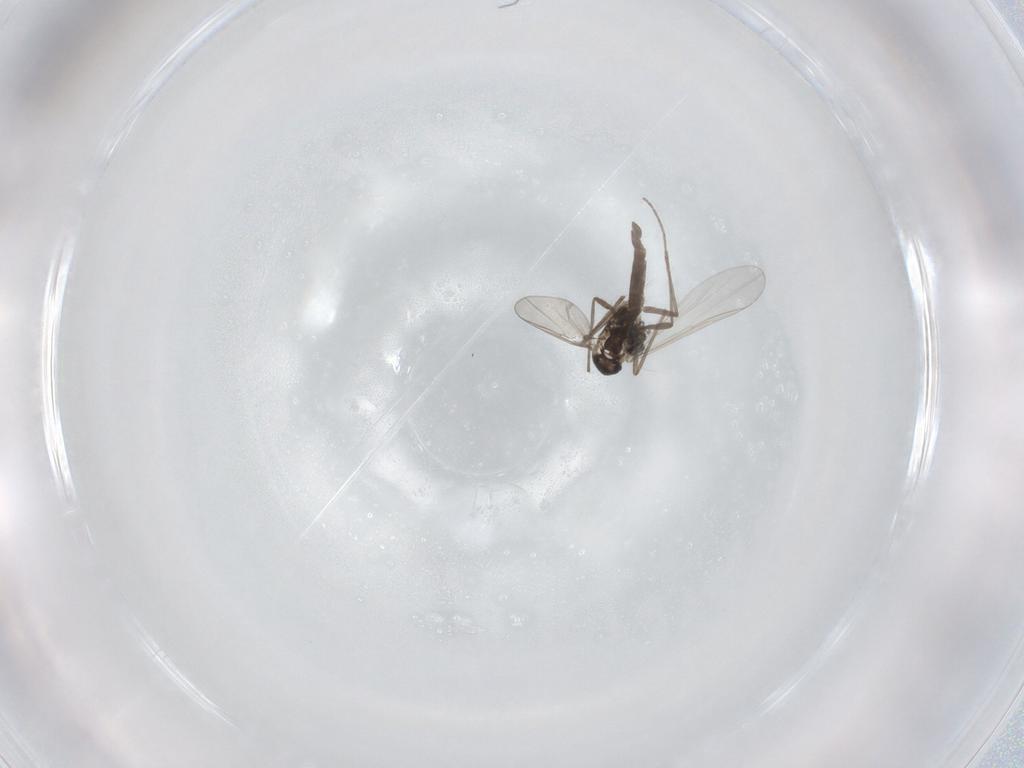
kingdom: Animalia
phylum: Arthropoda
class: Insecta
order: Diptera
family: Chironomidae
